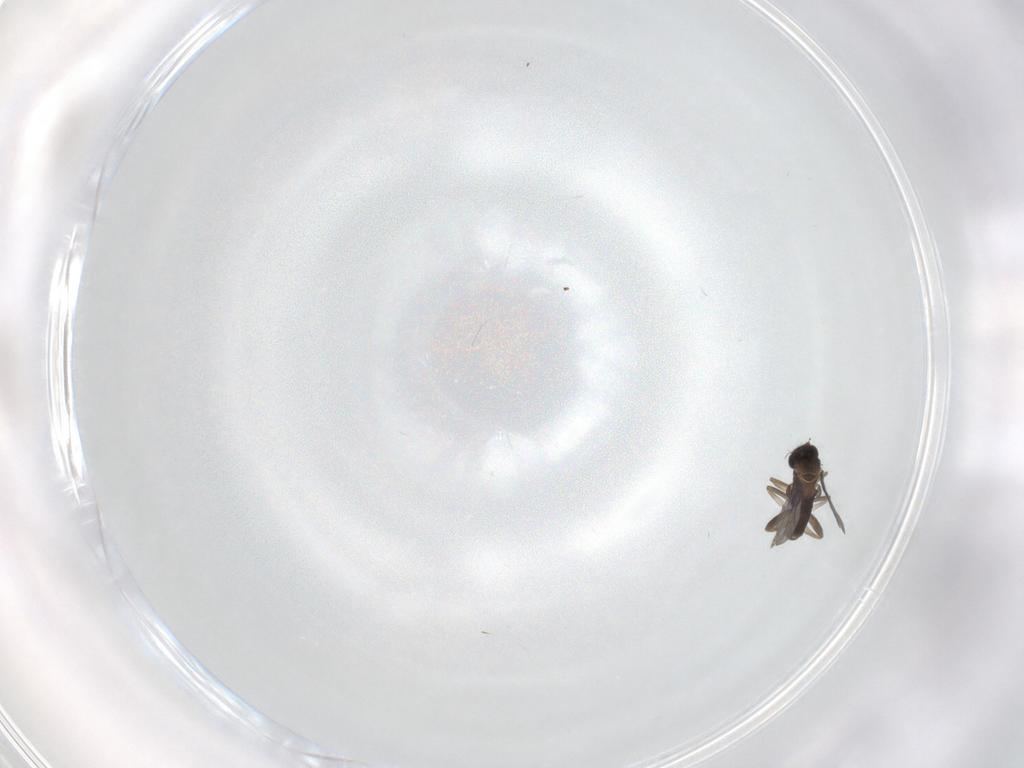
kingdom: Animalia
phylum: Arthropoda
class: Insecta
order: Diptera
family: Dolichopodidae
